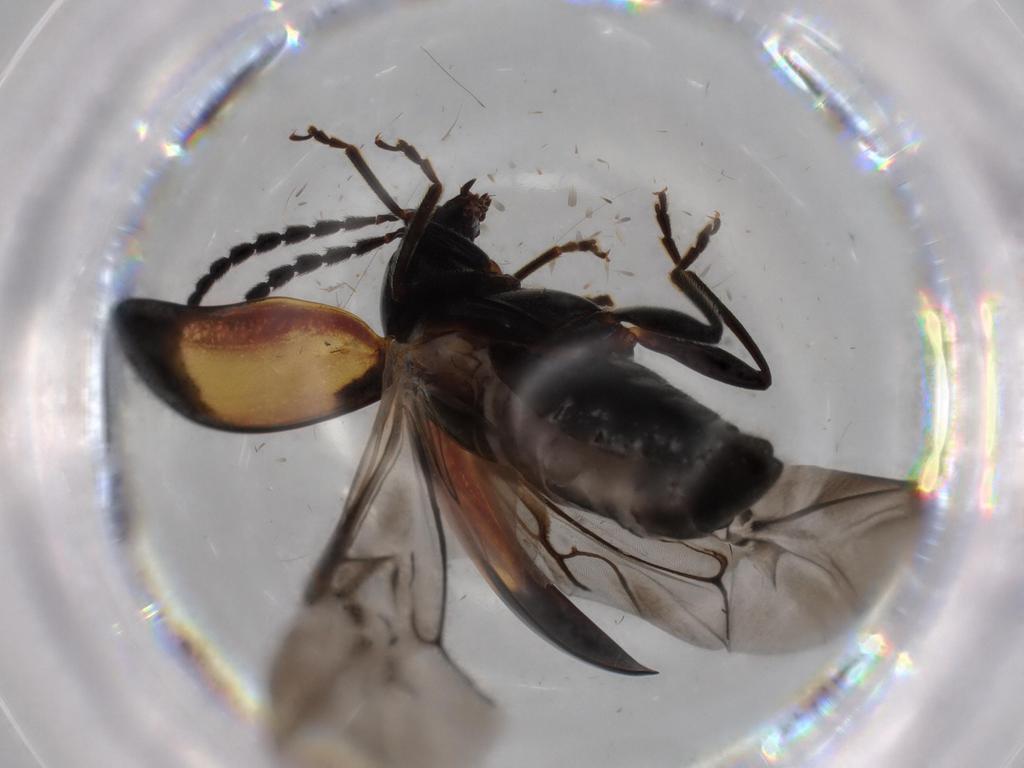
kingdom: Animalia
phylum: Arthropoda
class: Insecta
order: Coleoptera
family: Chrysomelidae
